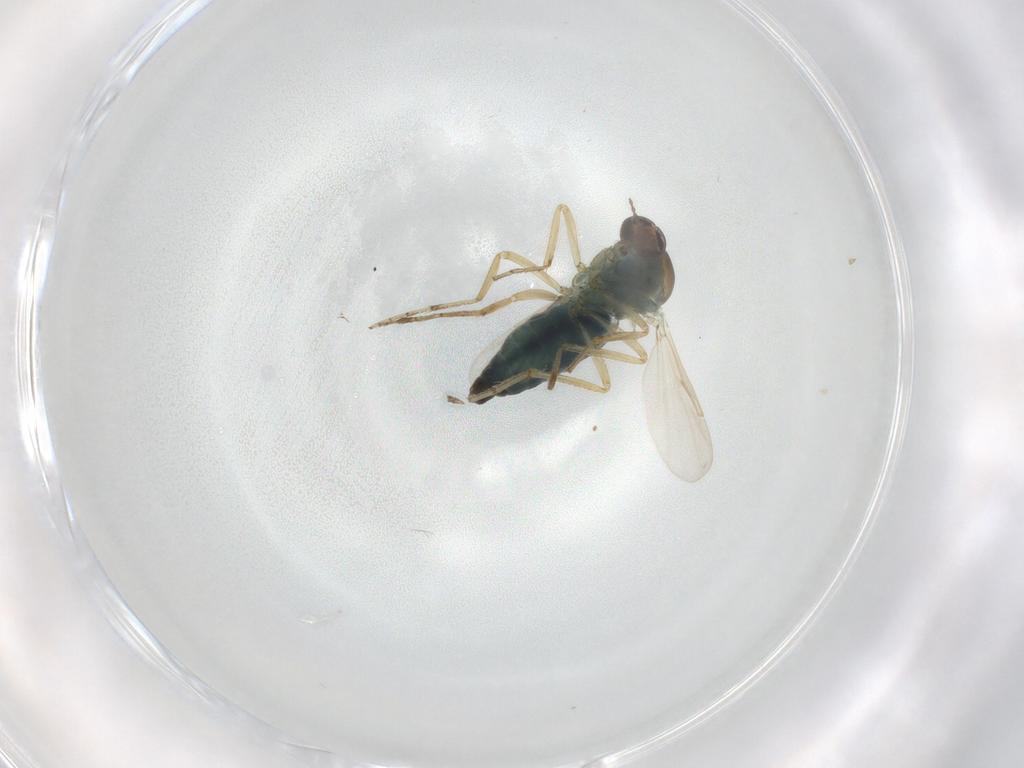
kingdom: Animalia
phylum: Arthropoda
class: Insecta
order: Diptera
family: Ceratopogonidae
